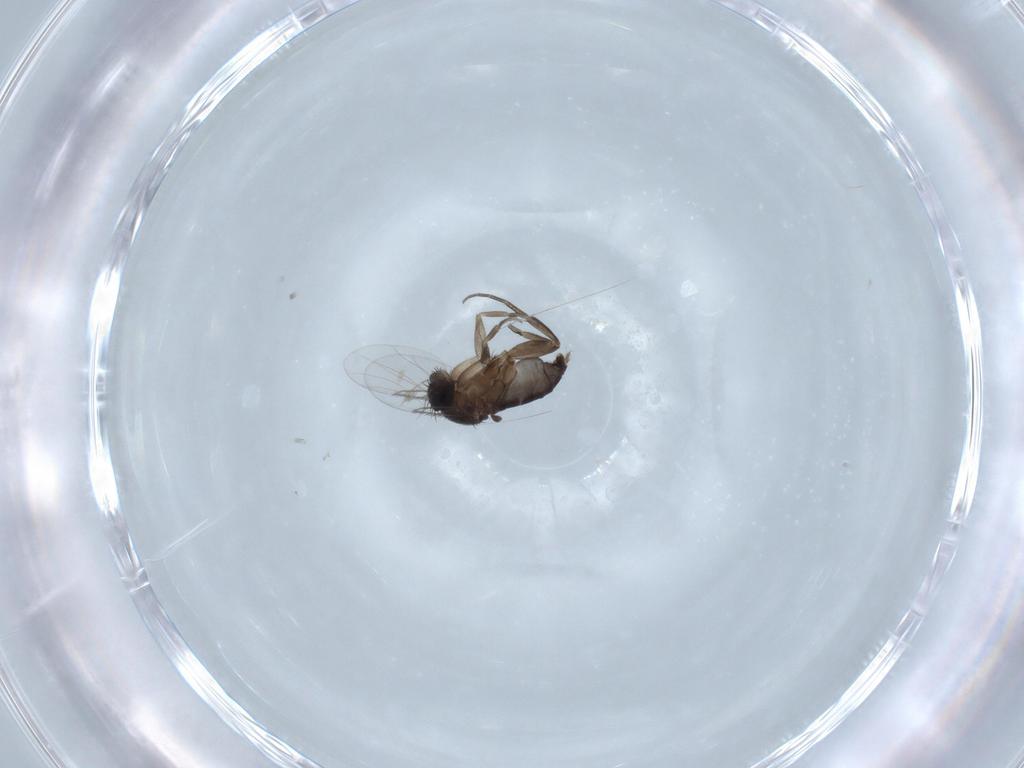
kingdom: Animalia
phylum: Arthropoda
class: Insecta
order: Diptera
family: Phoridae
